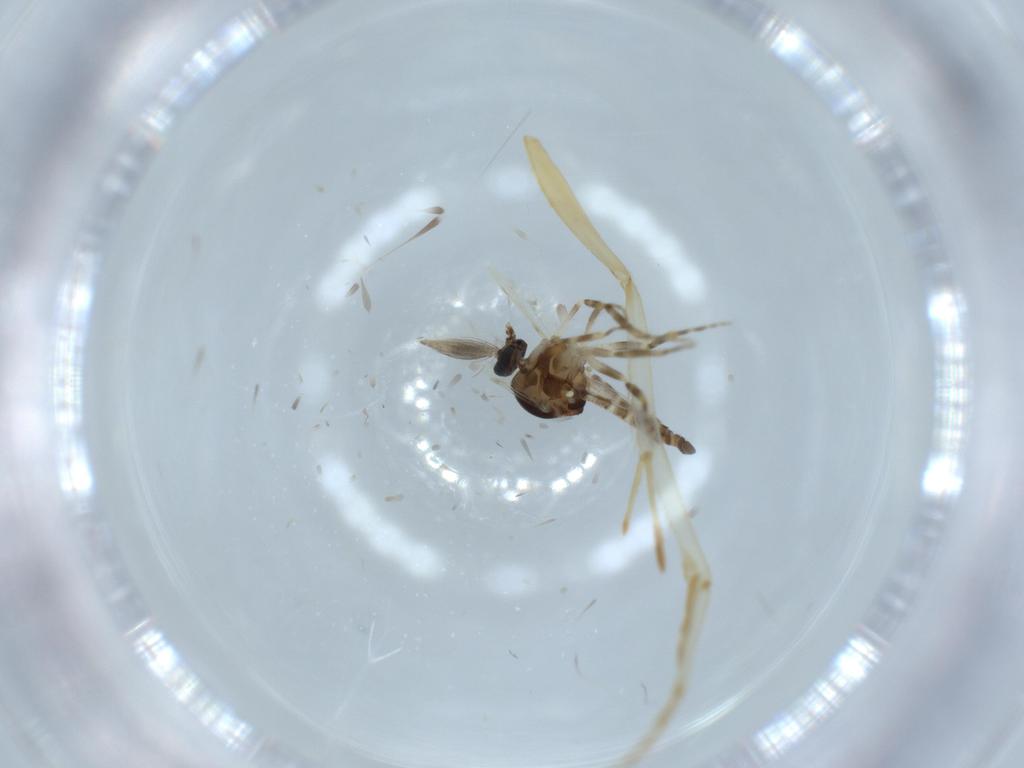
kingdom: Animalia
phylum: Arthropoda
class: Insecta
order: Diptera
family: Ceratopogonidae
